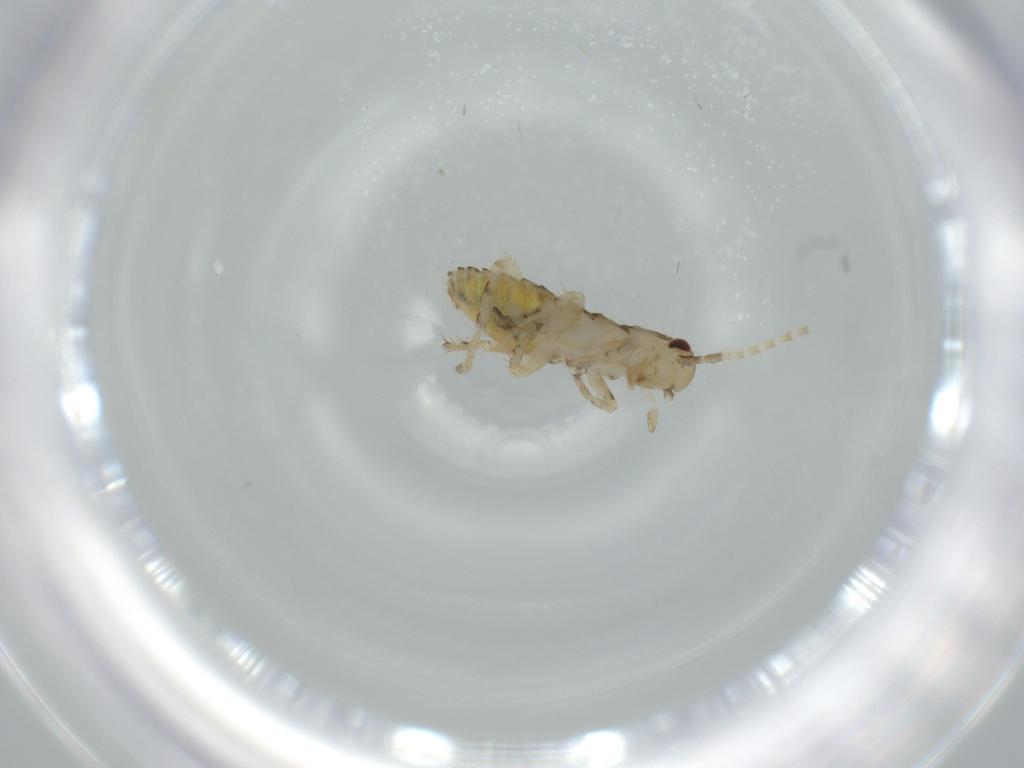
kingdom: Animalia
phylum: Arthropoda
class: Insecta
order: Blattodea
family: Ectobiidae
